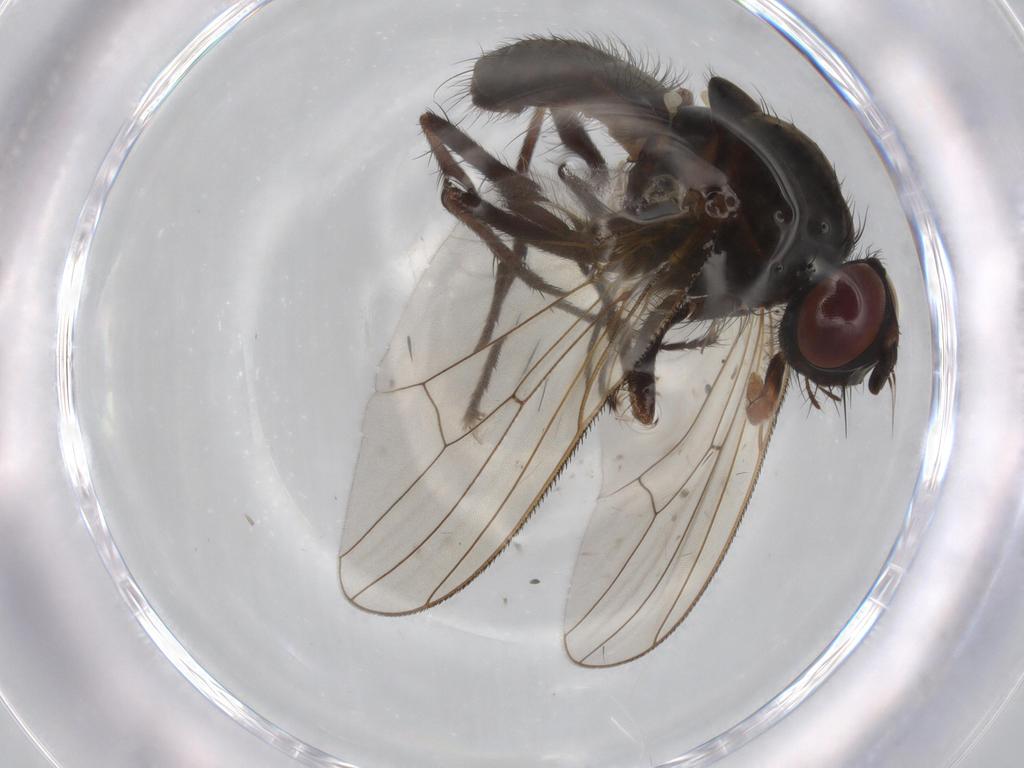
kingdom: Animalia
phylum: Arthropoda
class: Insecta
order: Diptera
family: Anthomyiidae
